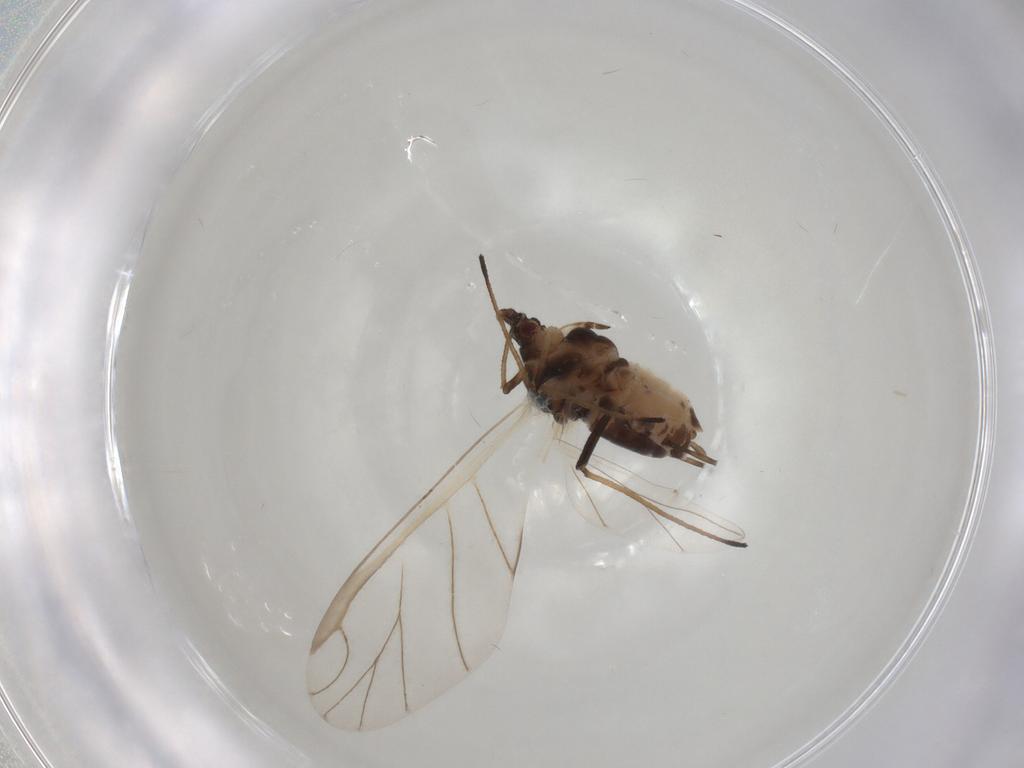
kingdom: Animalia
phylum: Arthropoda
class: Insecta
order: Hemiptera
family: Aphididae
